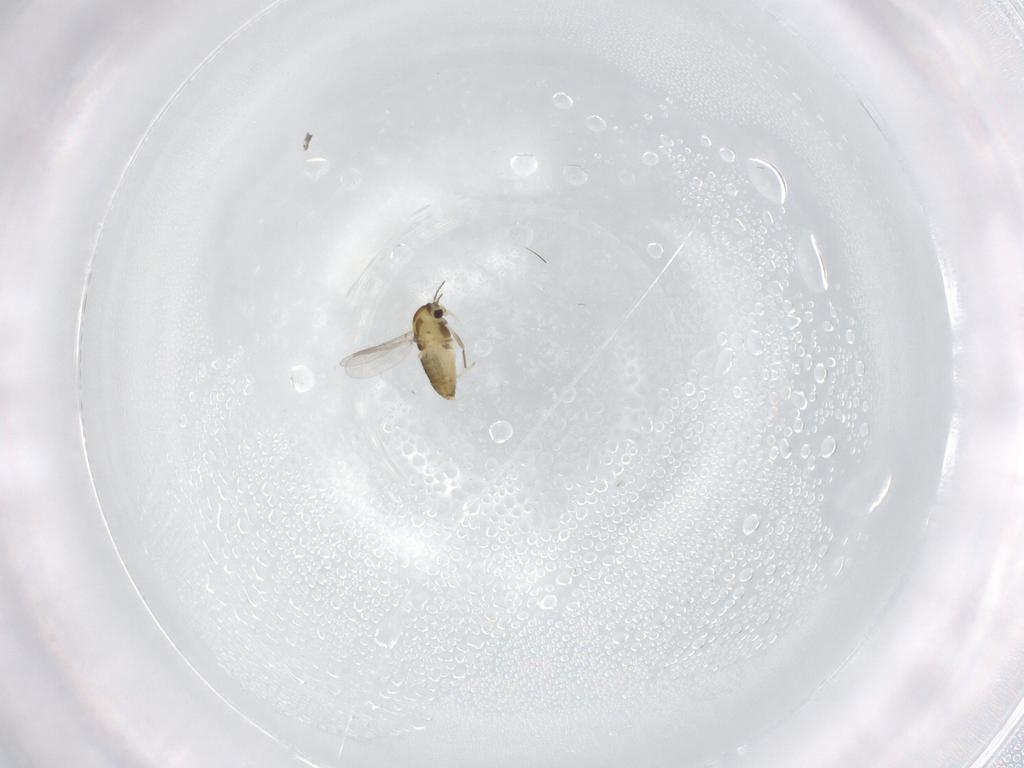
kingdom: Animalia
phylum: Arthropoda
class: Insecta
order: Diptera
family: Chironomidae
